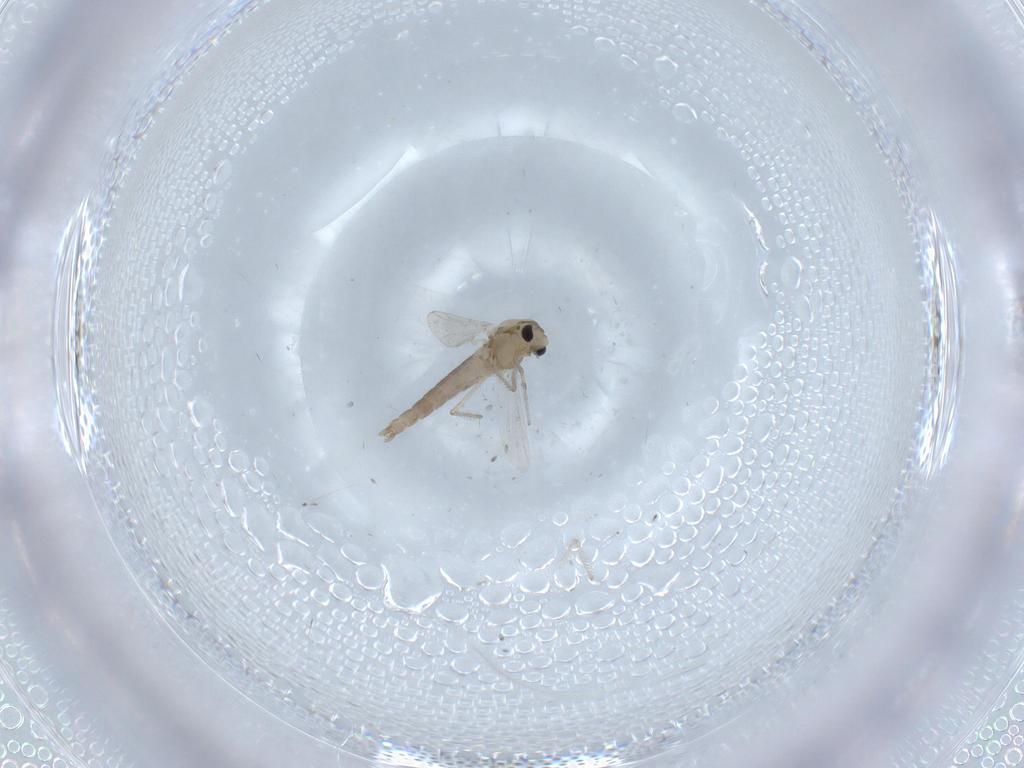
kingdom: Animalia
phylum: Arthropoda
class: Insecta
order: Diptera
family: Chironomidae
